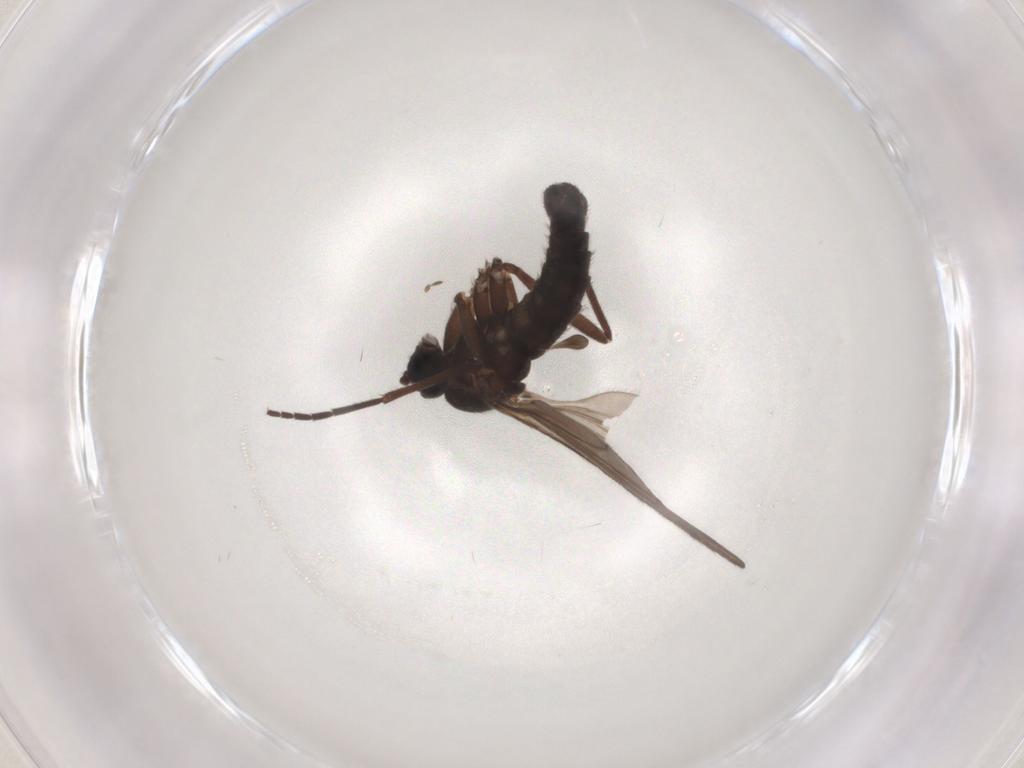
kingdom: Animalia
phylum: Arthropoda
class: Insecta
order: Diptera
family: Sciaridae
